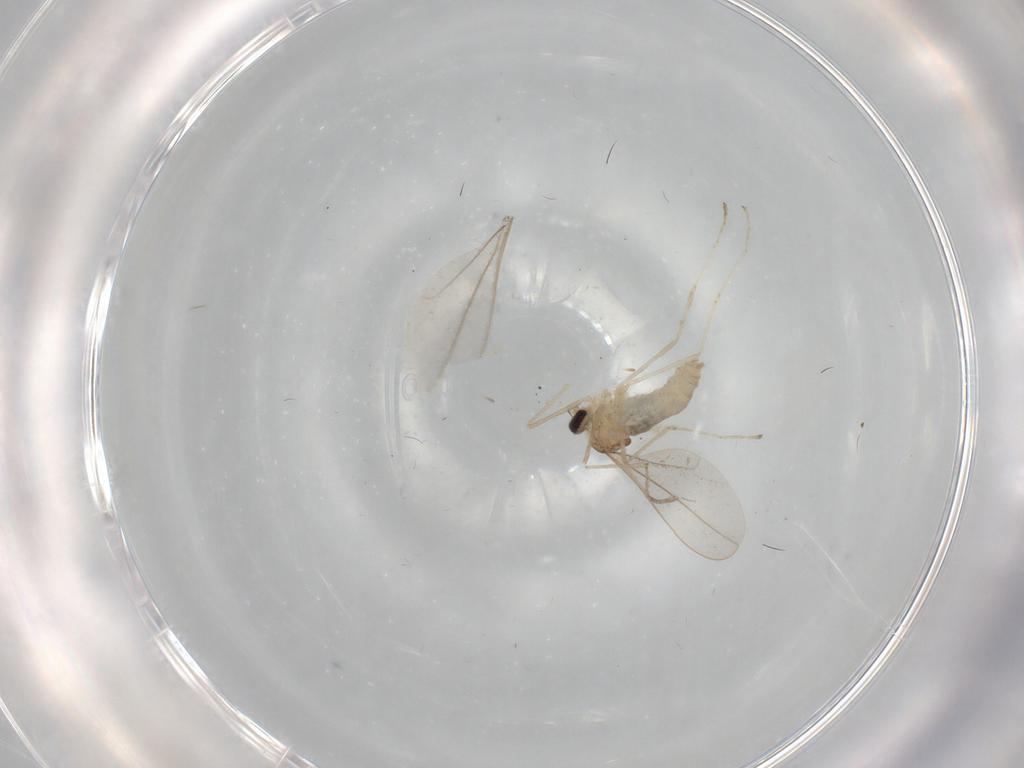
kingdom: Animalia
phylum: Arthropoda
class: Insecta
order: Diptera
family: Cecidomyiidae
